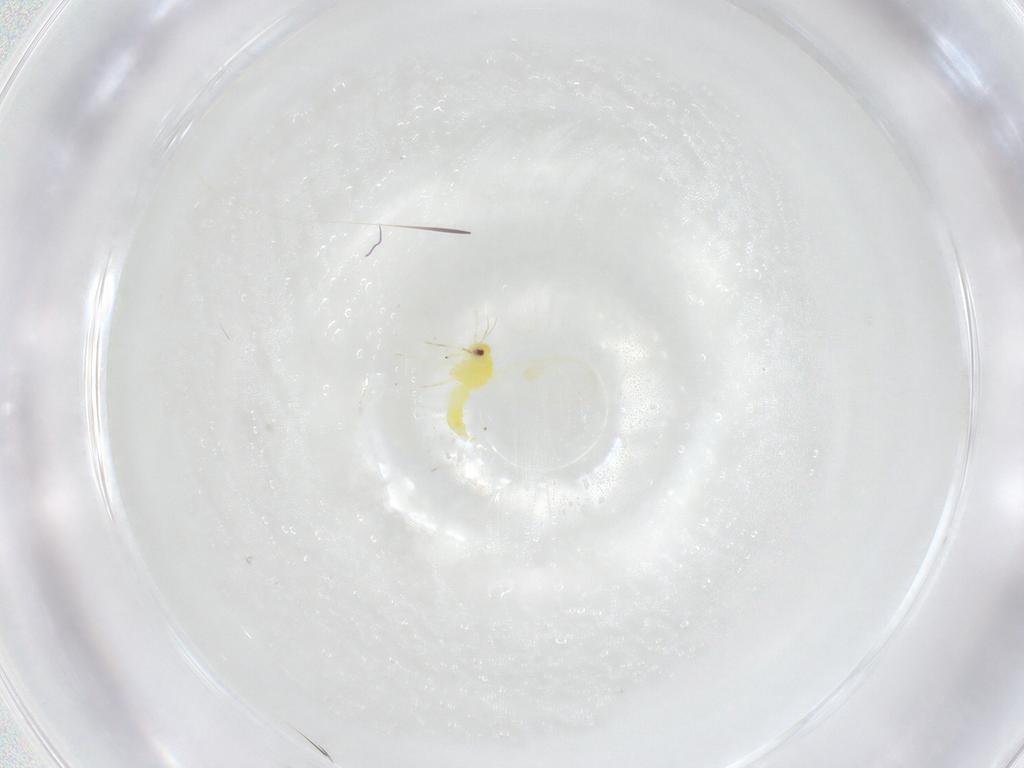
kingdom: Animalia
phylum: Arthropoda
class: Insecta
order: Hemiptera
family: Aleyrodidae
